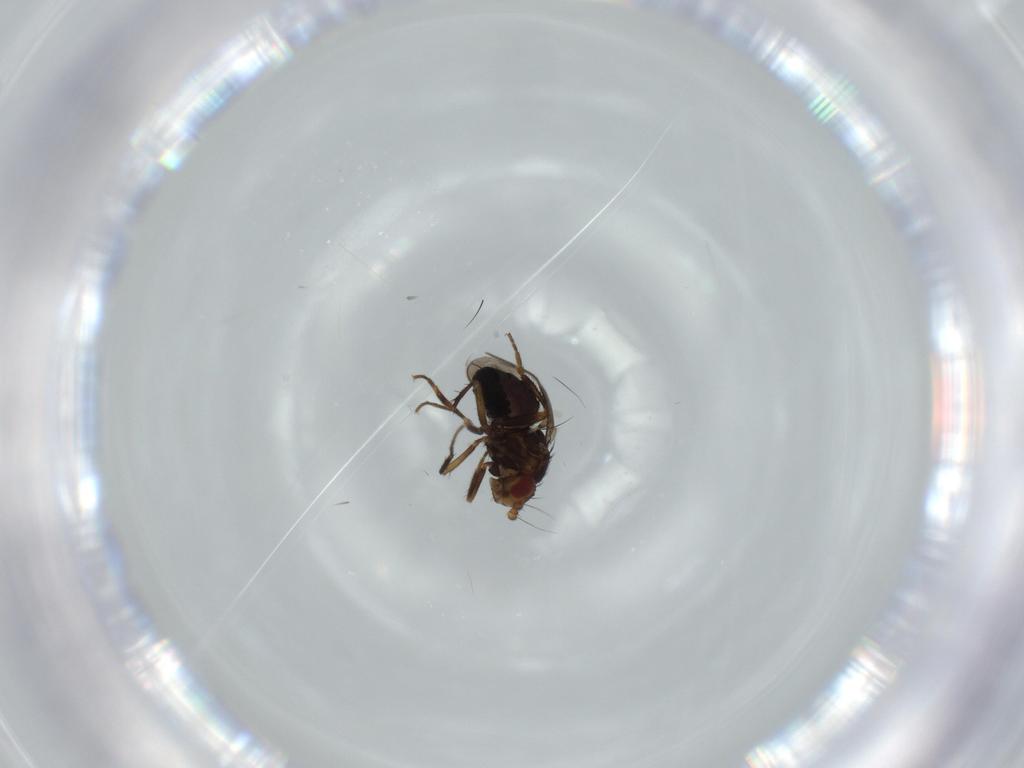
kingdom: Animalia
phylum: Arthropoda
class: Insecta
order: Diptera
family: Sphaeroceridae
